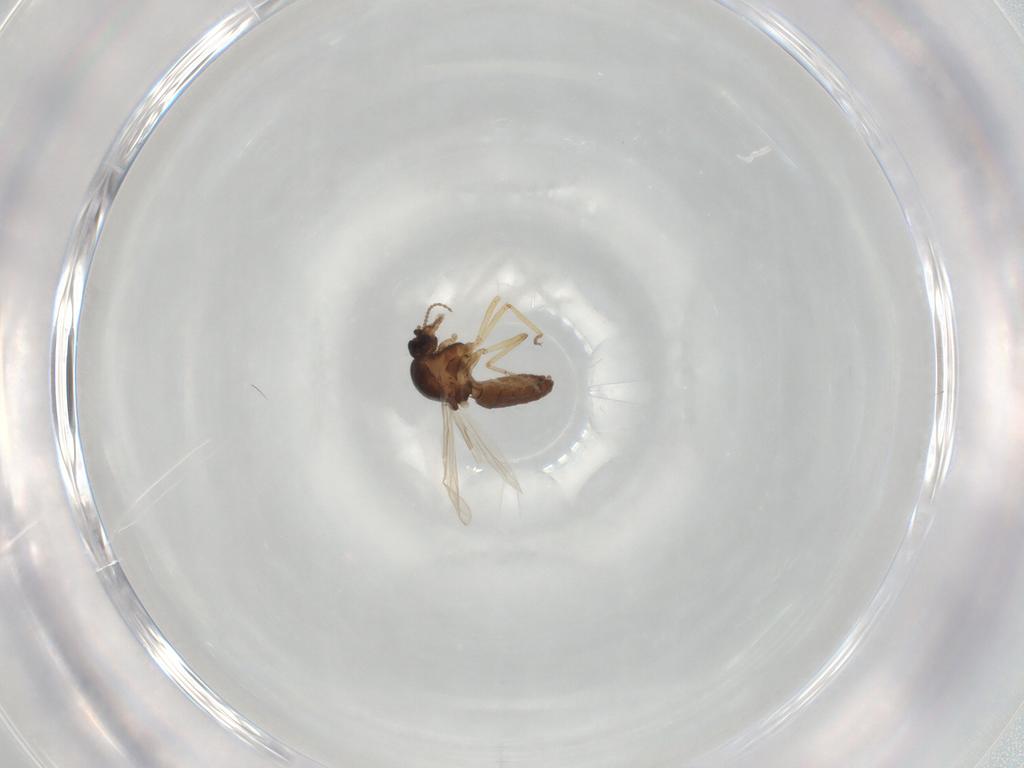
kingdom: Animalia
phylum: Arthropoda
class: Insecta
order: Diptera
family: Ceratopogonidae
